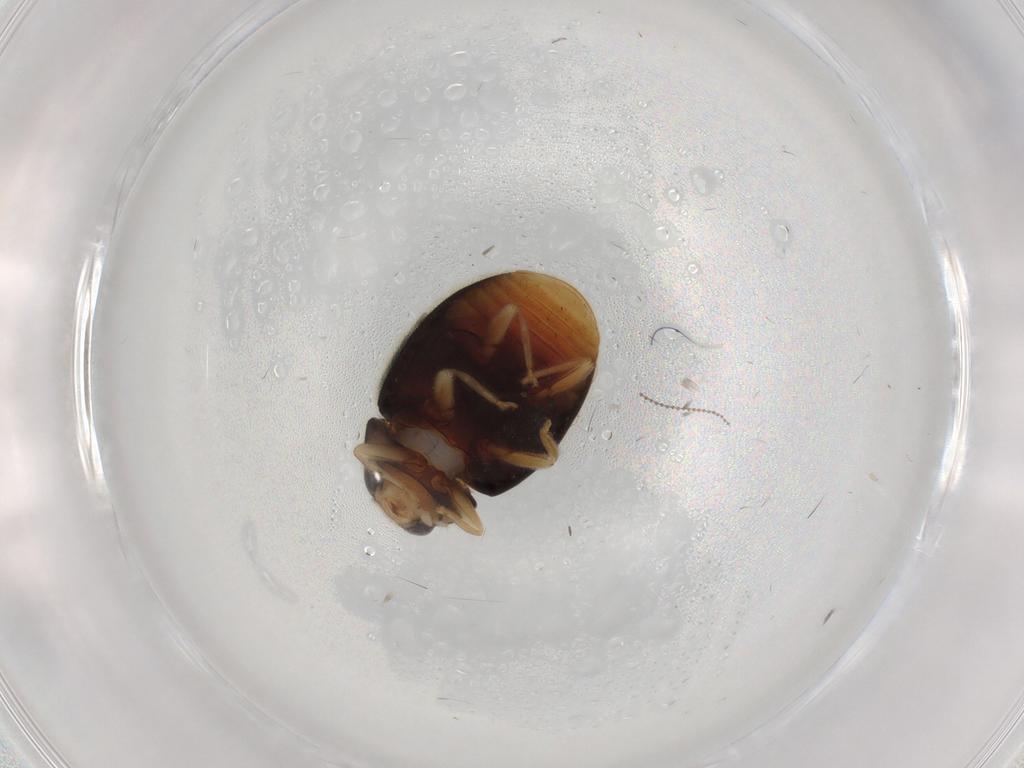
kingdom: Animalia
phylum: Arthropoda
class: Insecta
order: Coleoptera
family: Coccinellidae
